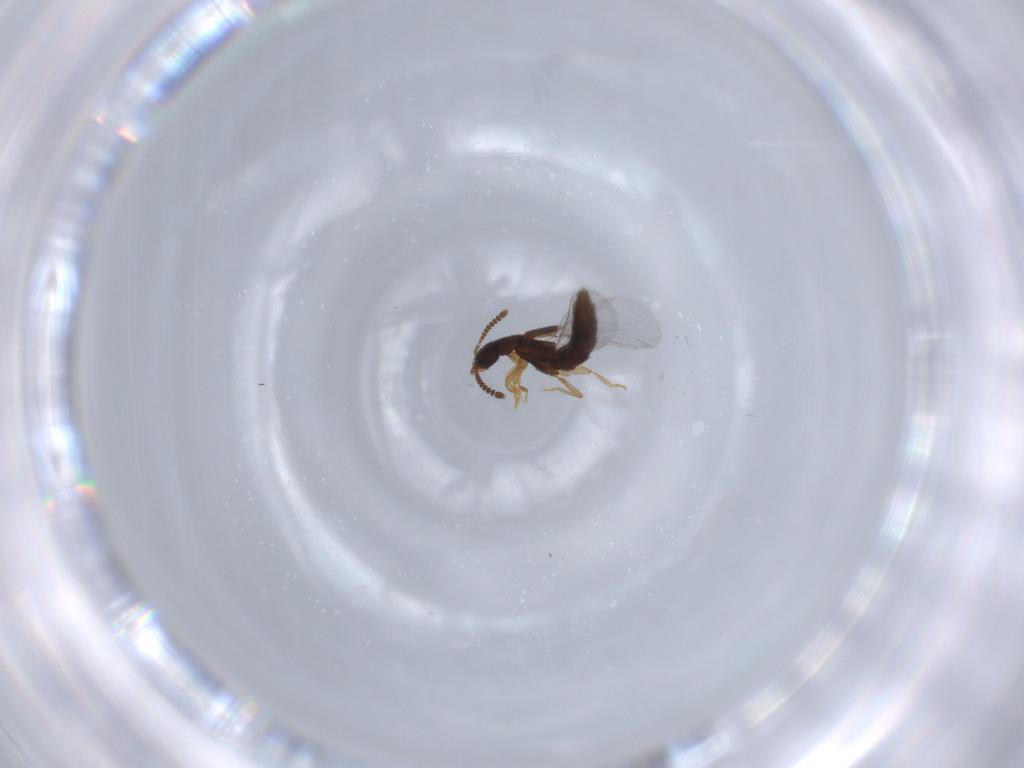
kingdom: Animalia
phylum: Arthropoda
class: Insecta
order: Coleoptera
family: Staphylinidae
